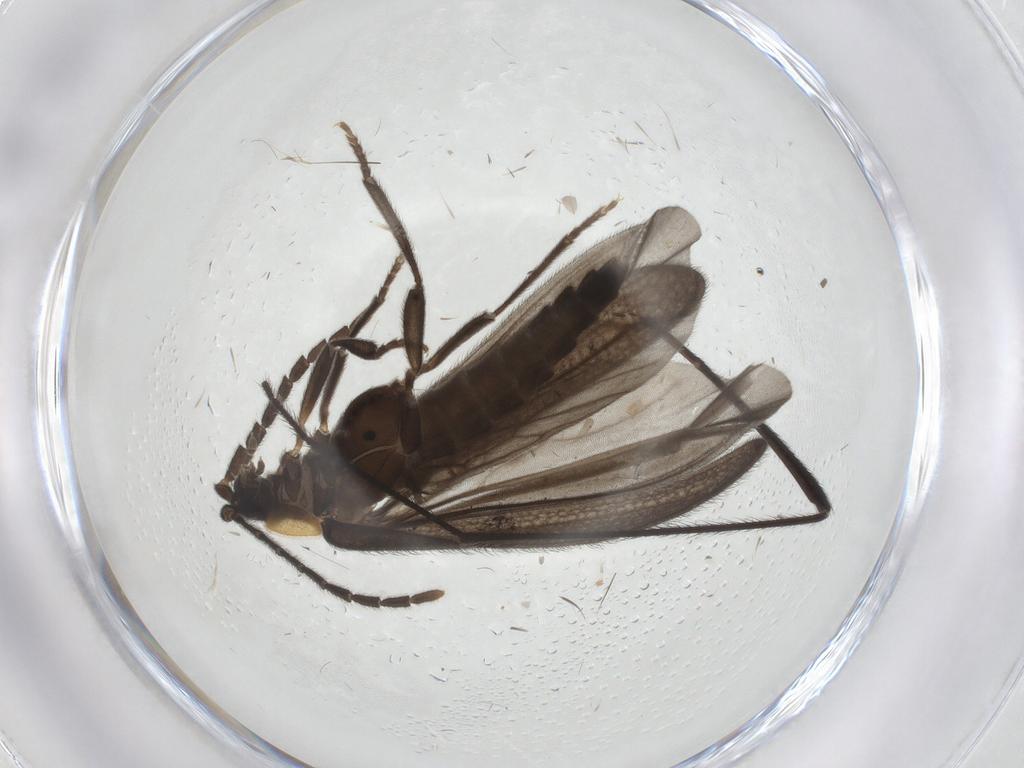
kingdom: Animalia
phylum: Arthropoda
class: Insecta
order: Coleoptera
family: Lycidae
